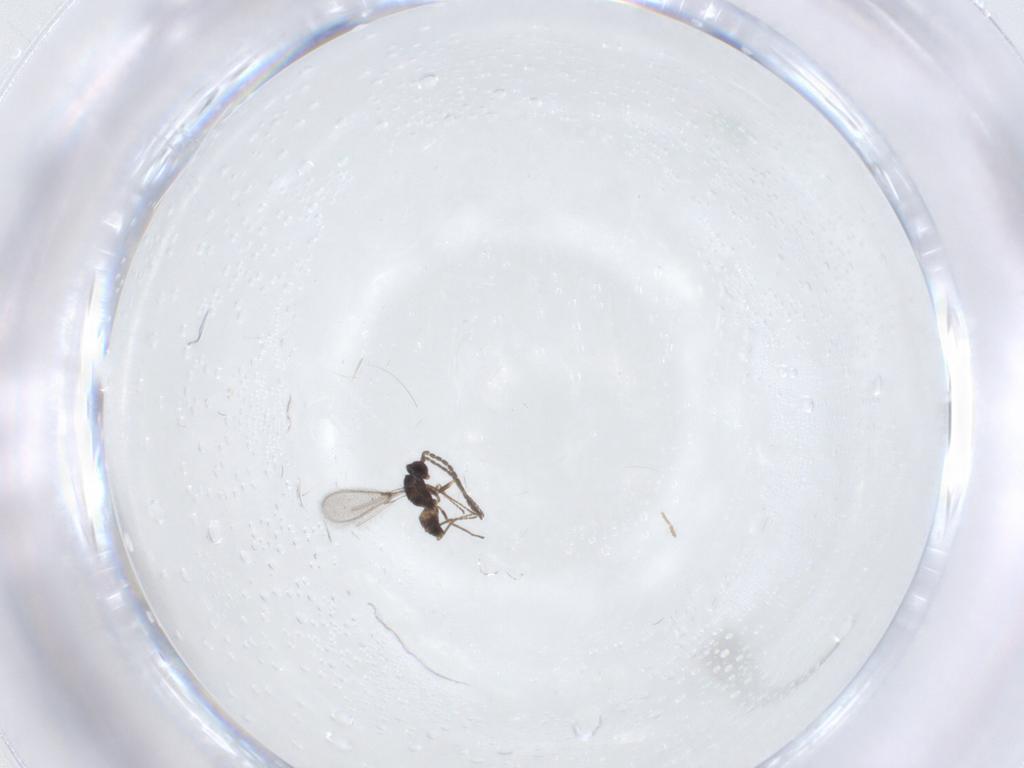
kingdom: Animalia
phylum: Arthropoda
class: Insecta
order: Hymenoptera
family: Mymaridae
